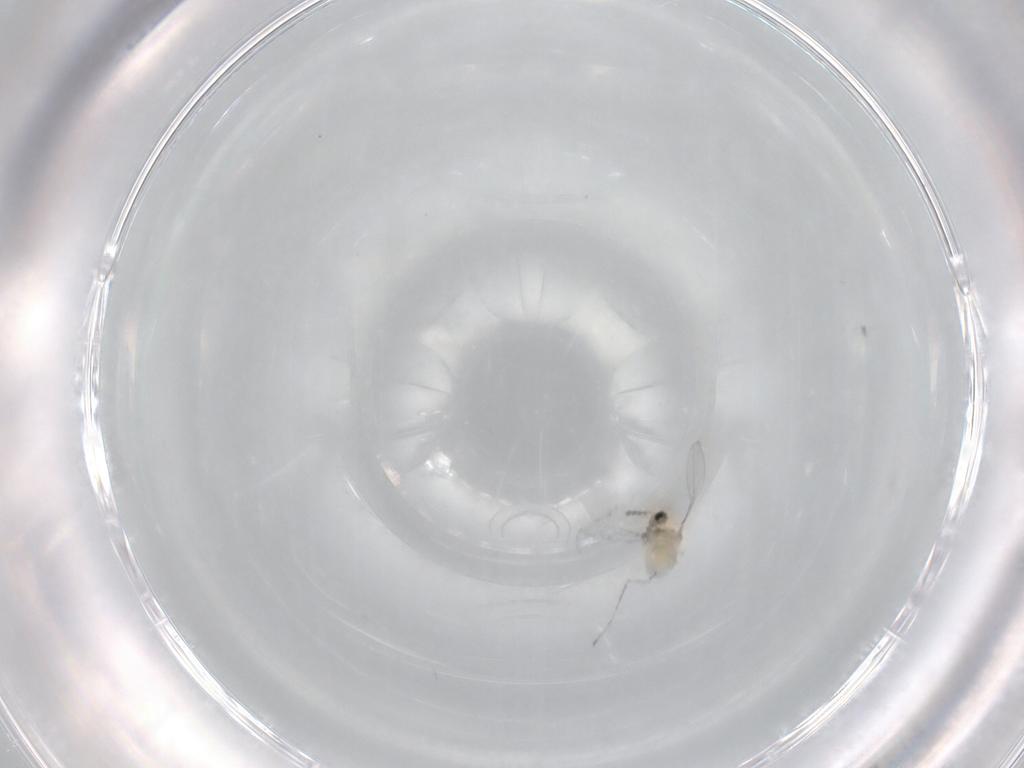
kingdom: Animalia
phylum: Arthropoda
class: Insecta
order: Diptera
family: Cecidomyiidae
